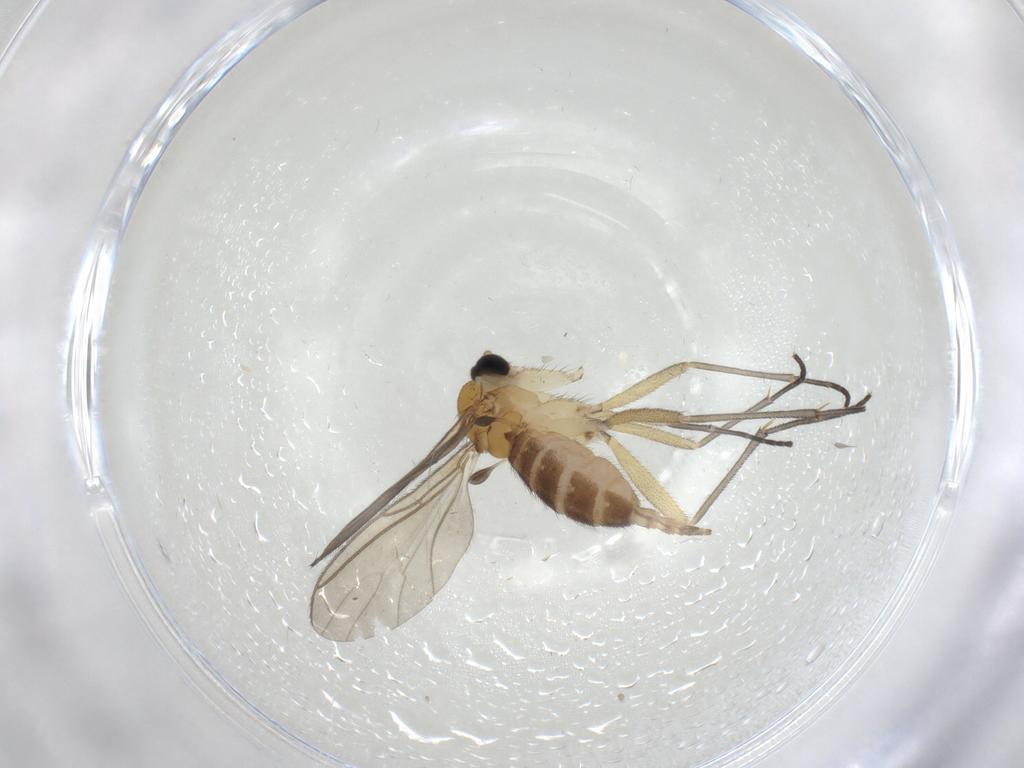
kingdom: Animalia
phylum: Arthropoda
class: Insecta
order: Diptera
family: Sciaridae
